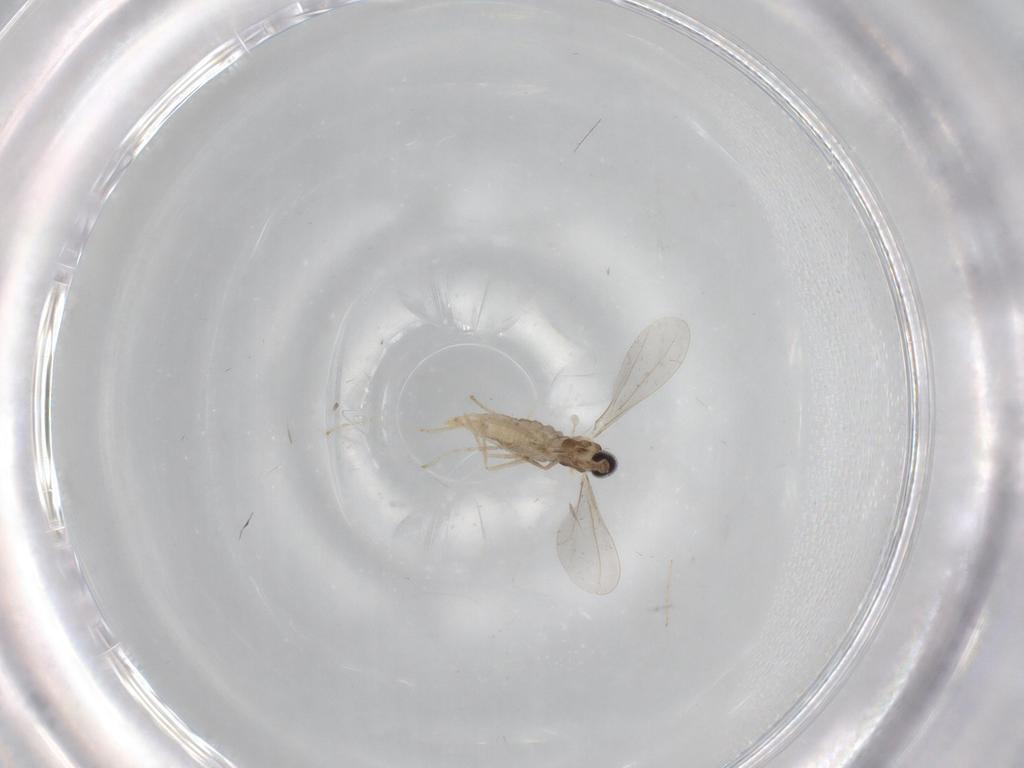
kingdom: Animalia
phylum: Arthropoda
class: Insecta
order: Diptera
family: Cecidomyiidae
